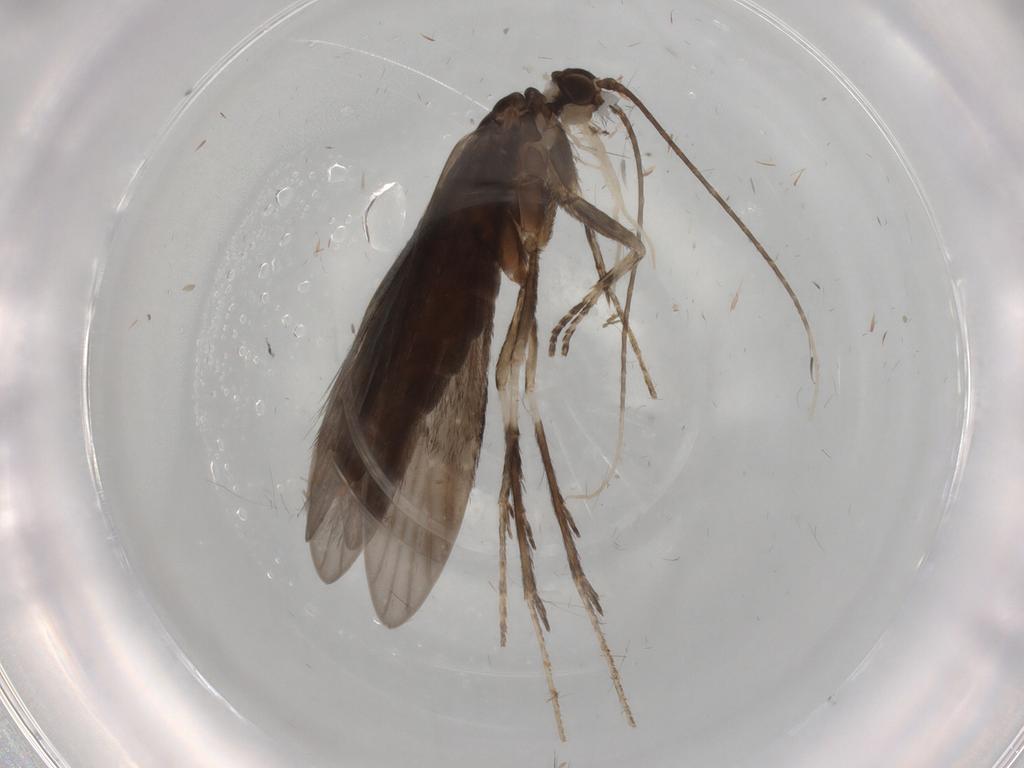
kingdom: Animalia
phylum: Arthropoda
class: Insecta
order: Trichoptera
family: Xiphocentronidae
